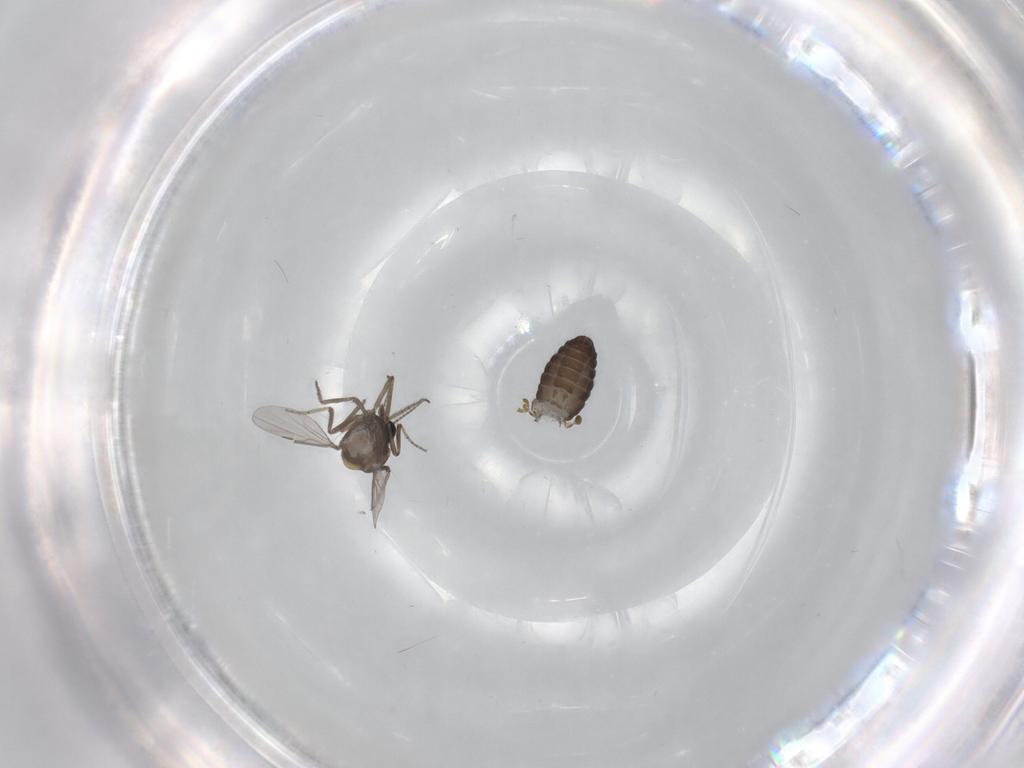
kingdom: Animalia
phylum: Arthropoda
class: Insecta
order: Diptera
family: Ceratopogonidae
